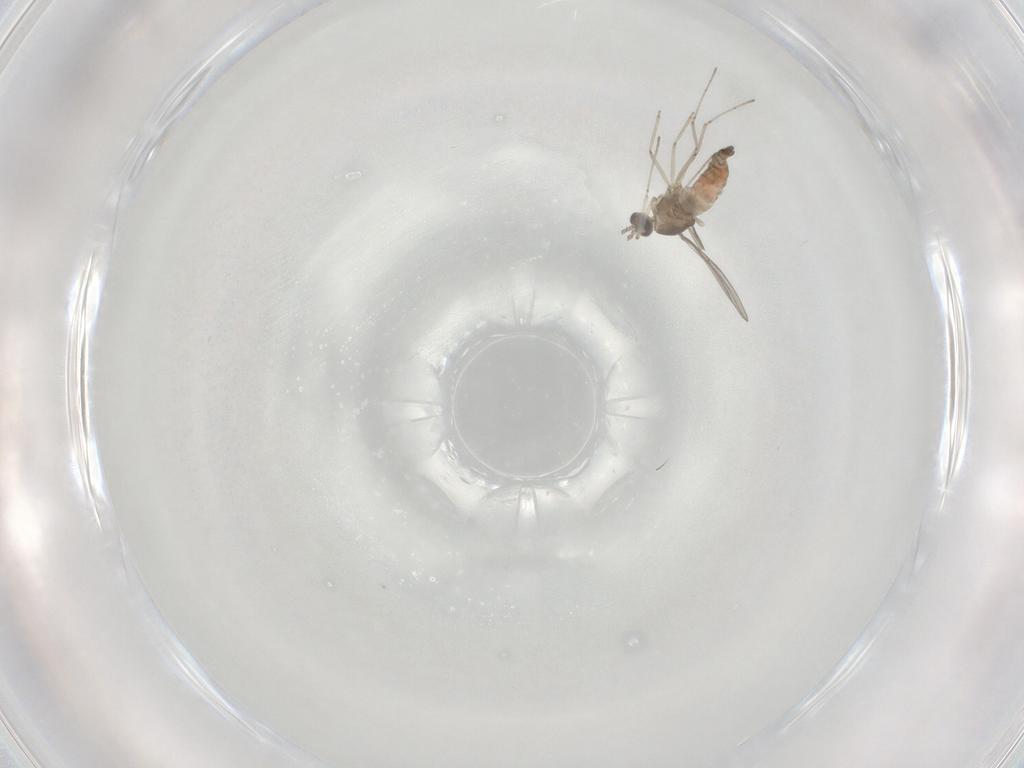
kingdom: Animalia
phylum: Arthropoda
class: Insecta
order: Diptera
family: Cecidomyiidae
